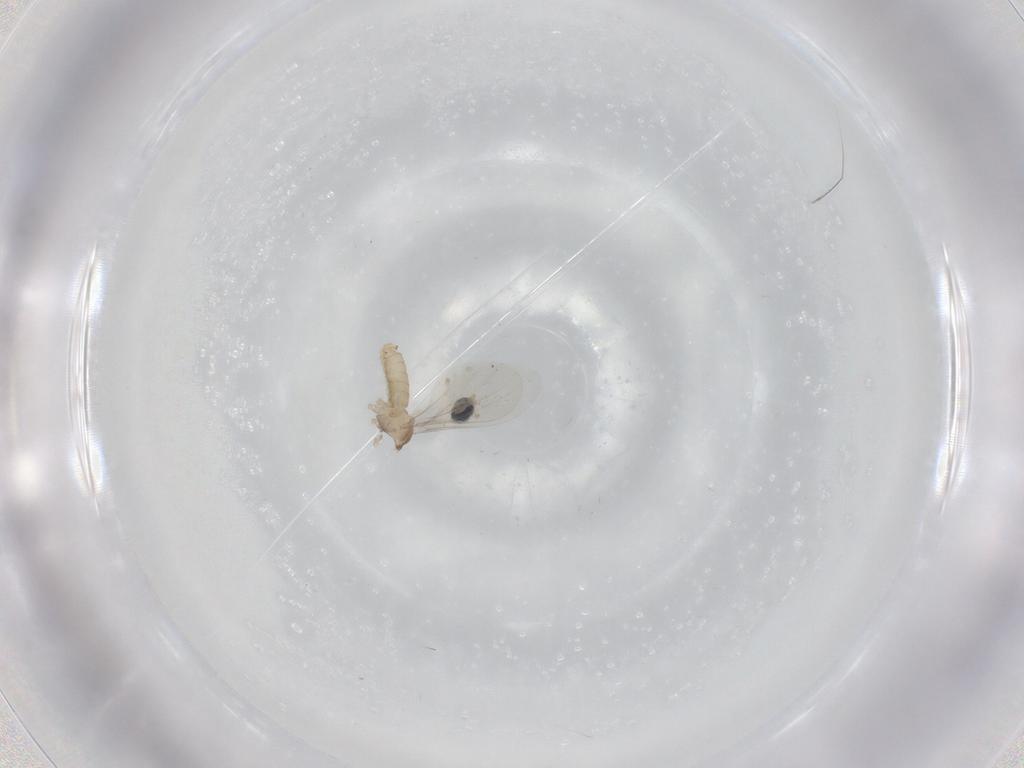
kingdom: Animalia
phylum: Arthropoda
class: Insecta
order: Diptera
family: Cecidomyiidae
